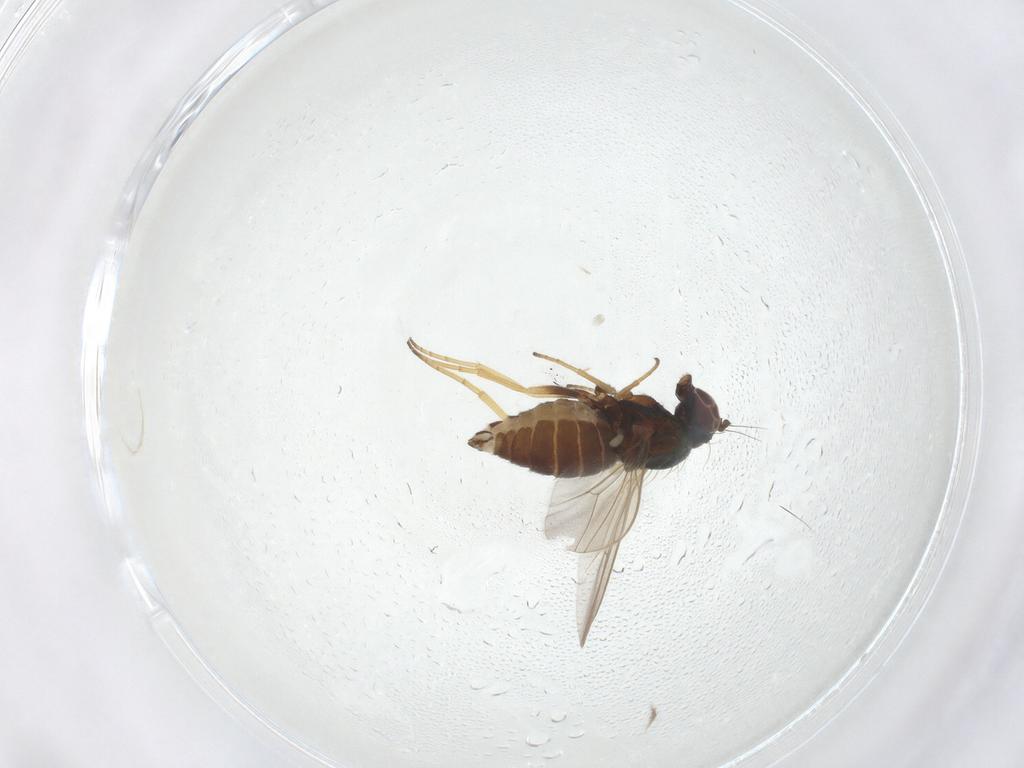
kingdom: Animalia
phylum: Arthropoda
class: Insecta
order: Diptera
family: Dolichopodidae
